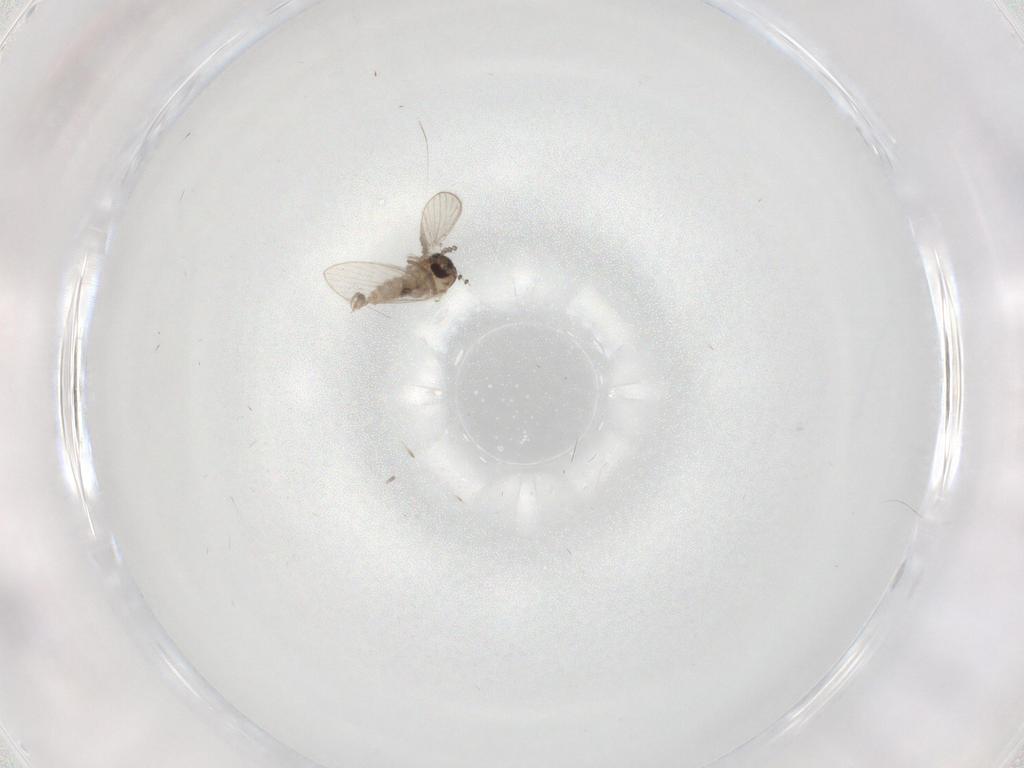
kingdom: Animalia
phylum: Arthropoda
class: Insecta
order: Diptera
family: Psychodidae
